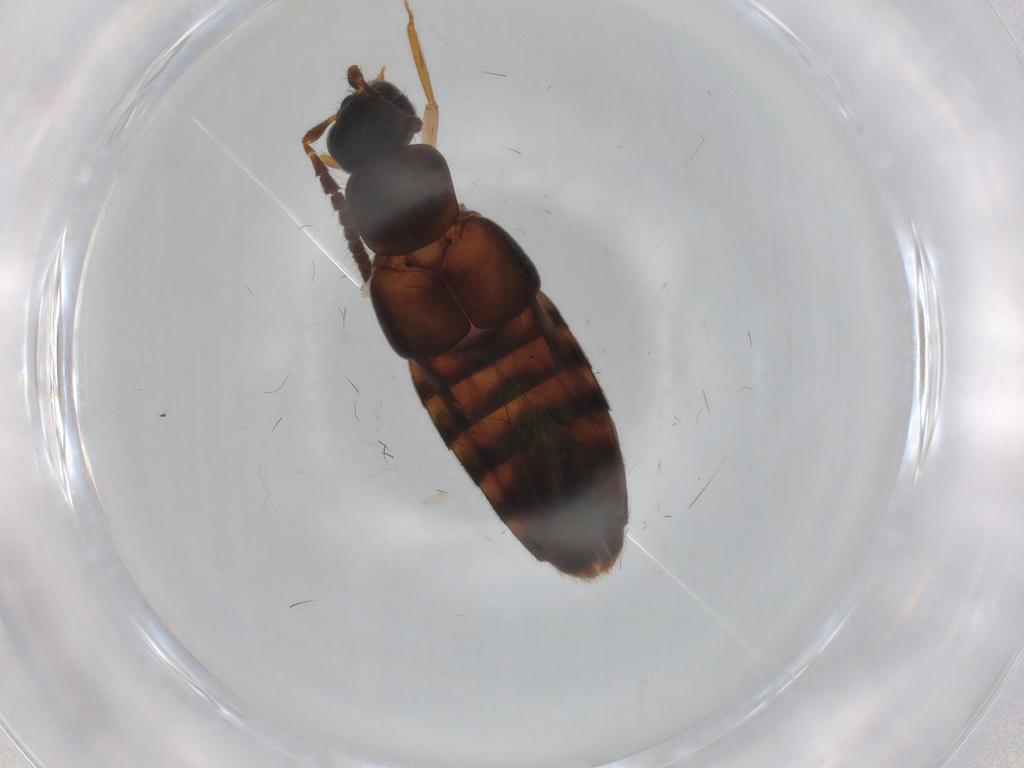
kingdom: Animalia
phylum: Arthropoda
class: Insecta
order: Coleoptera
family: Staphylinidae
